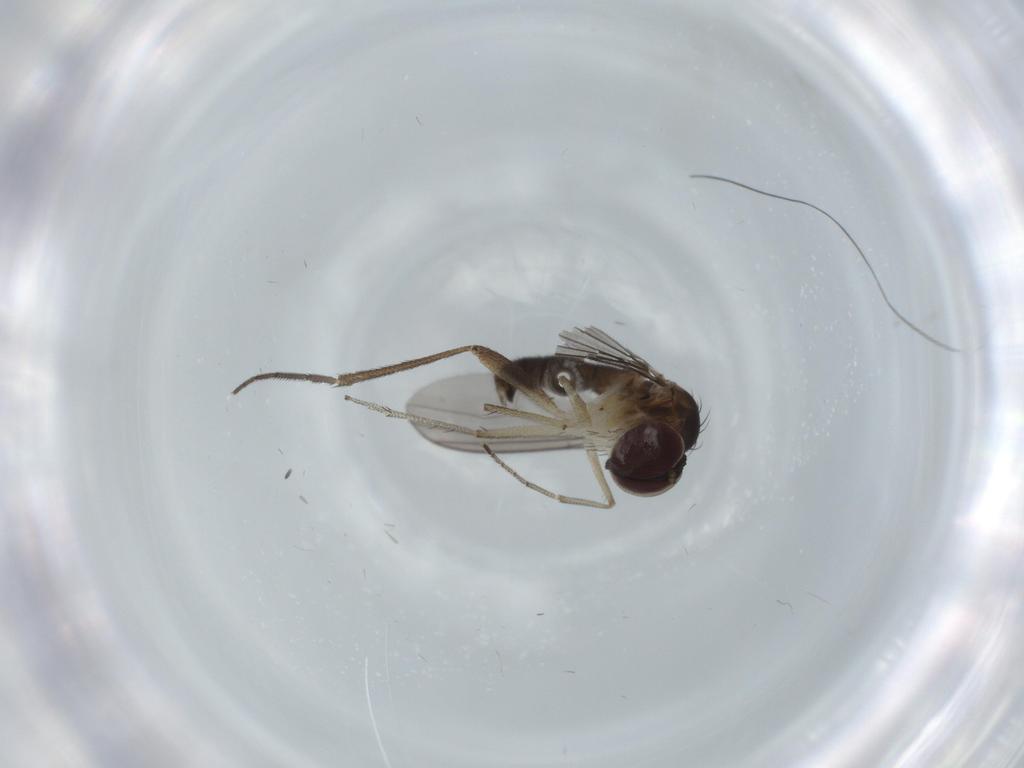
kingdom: Animalia
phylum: Arthropoda
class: Insecta
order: Diptera
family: Dolichopodidae
